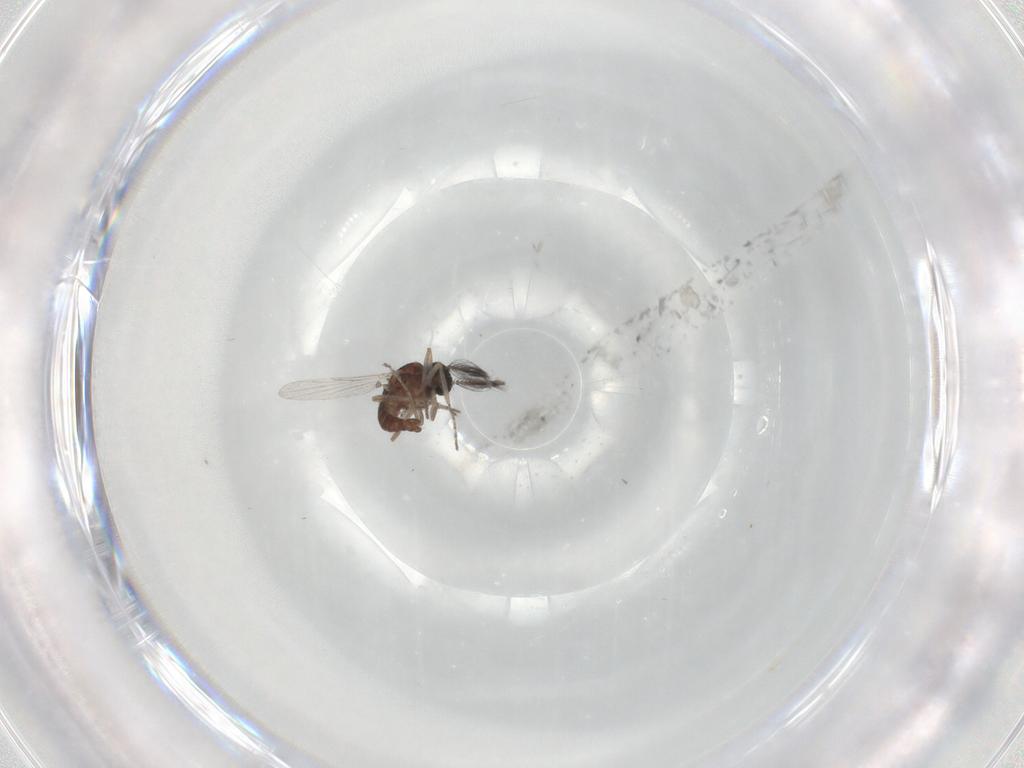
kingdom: Animalia
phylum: Arthropoda
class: Insecta
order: Diptera
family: Ceratopogonidae
